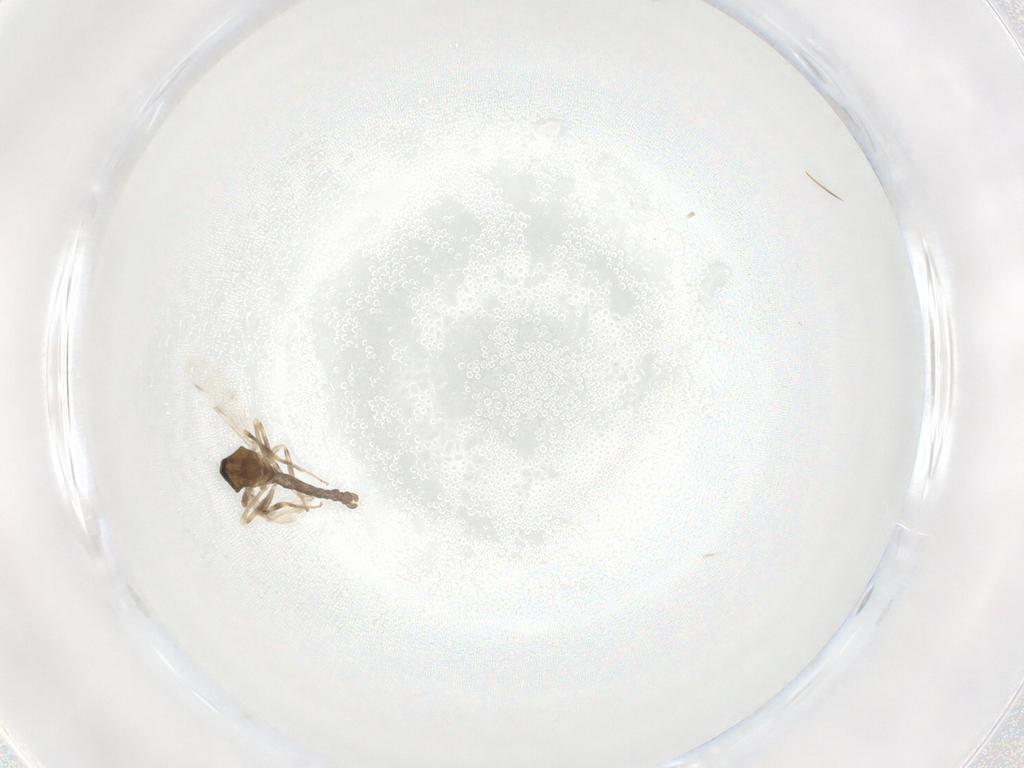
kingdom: Animalia
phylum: Arthropoda
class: Insecta
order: Diptera
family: Ceratopogonidae
